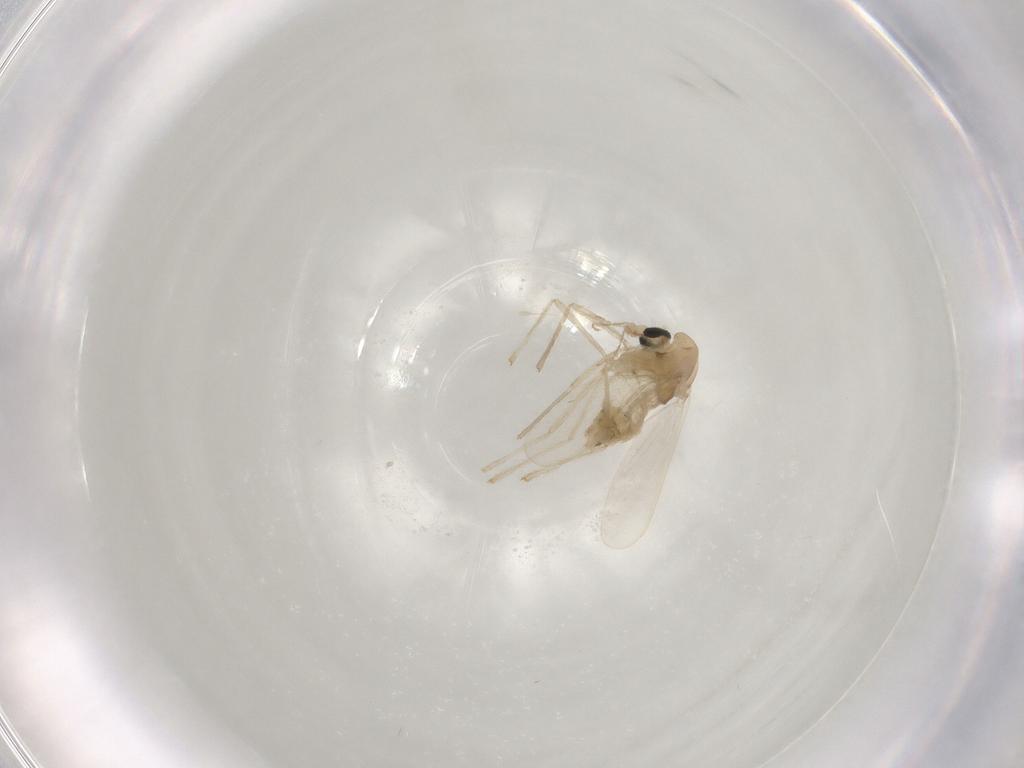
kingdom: Animalia
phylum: Arthropoda
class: Insecta
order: Diptera
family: Chironomidae
